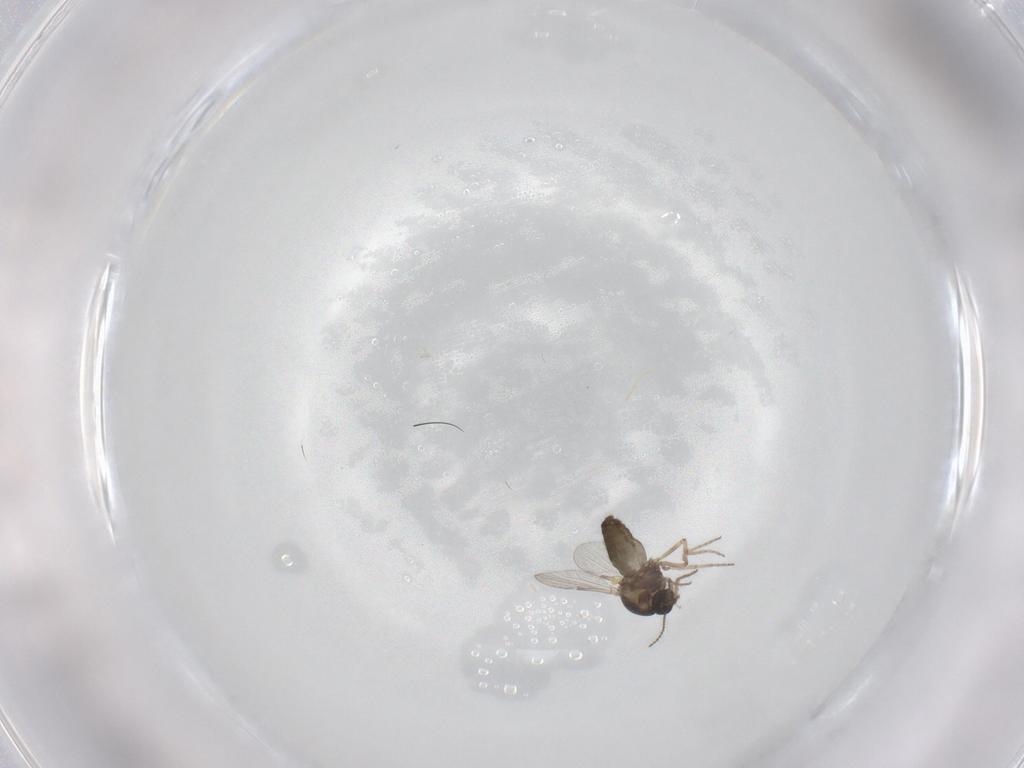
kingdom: Animalia
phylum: Arthropoda
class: Insecta
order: Diptera
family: Ceratopogonidae
